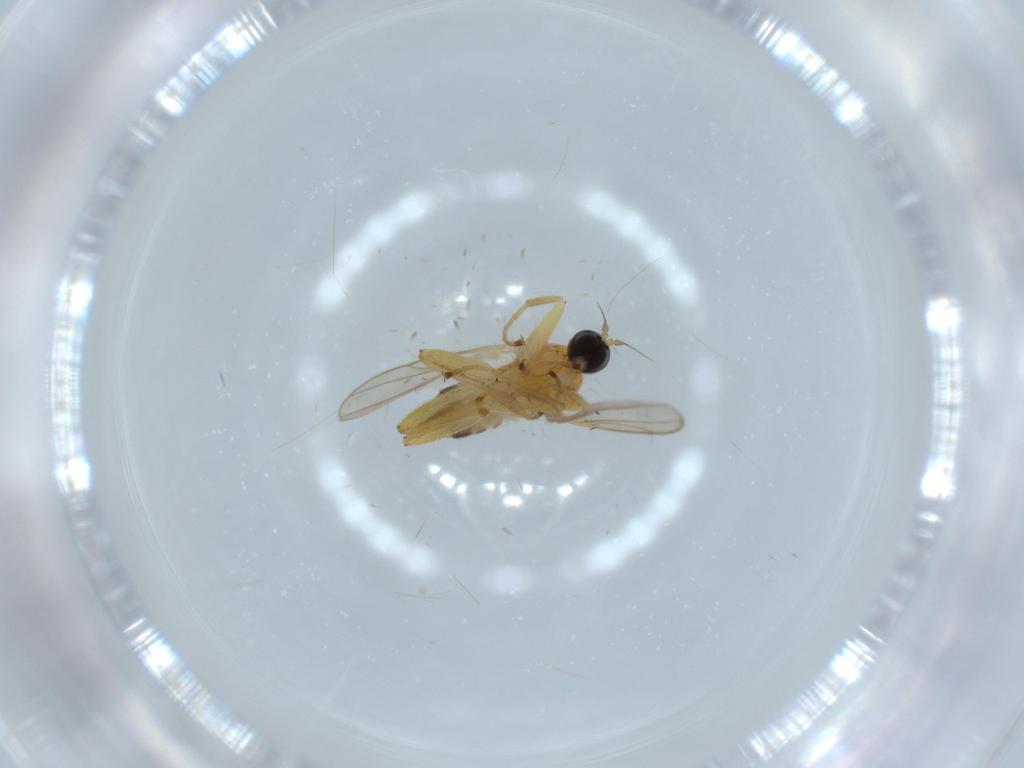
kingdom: Animalia
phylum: Arthropoda
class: Insecta
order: Diptera
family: Hybotidae
